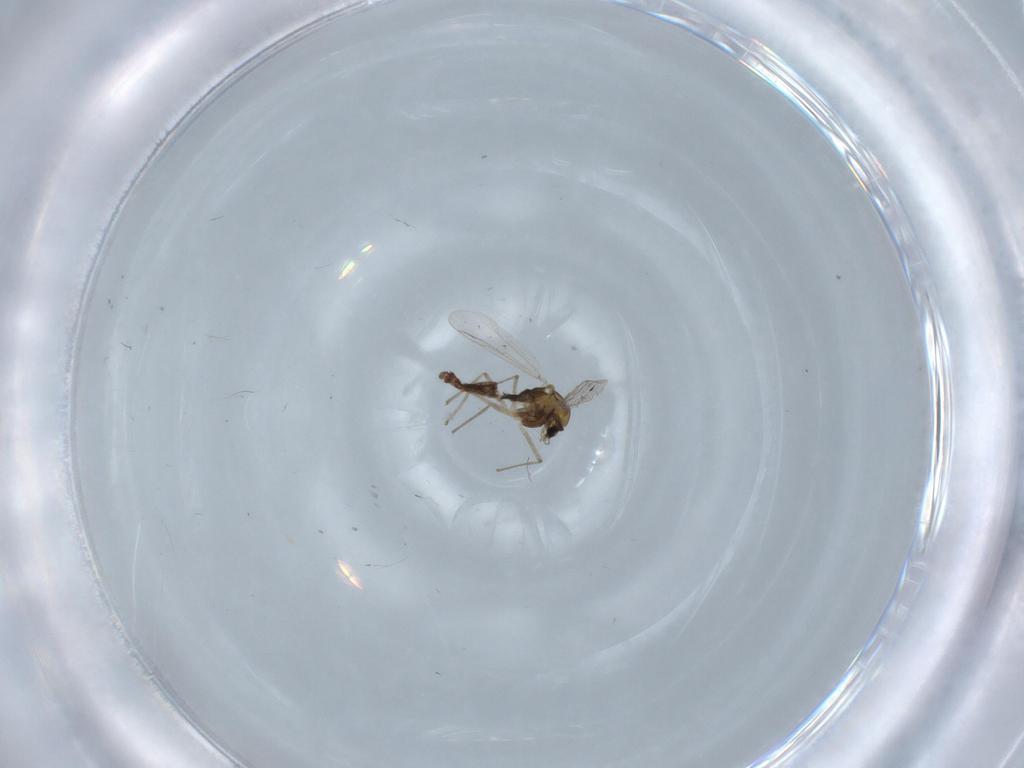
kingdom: Animalia
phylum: Arthropoda
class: Insecta
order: Diptera
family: Chironomidae
